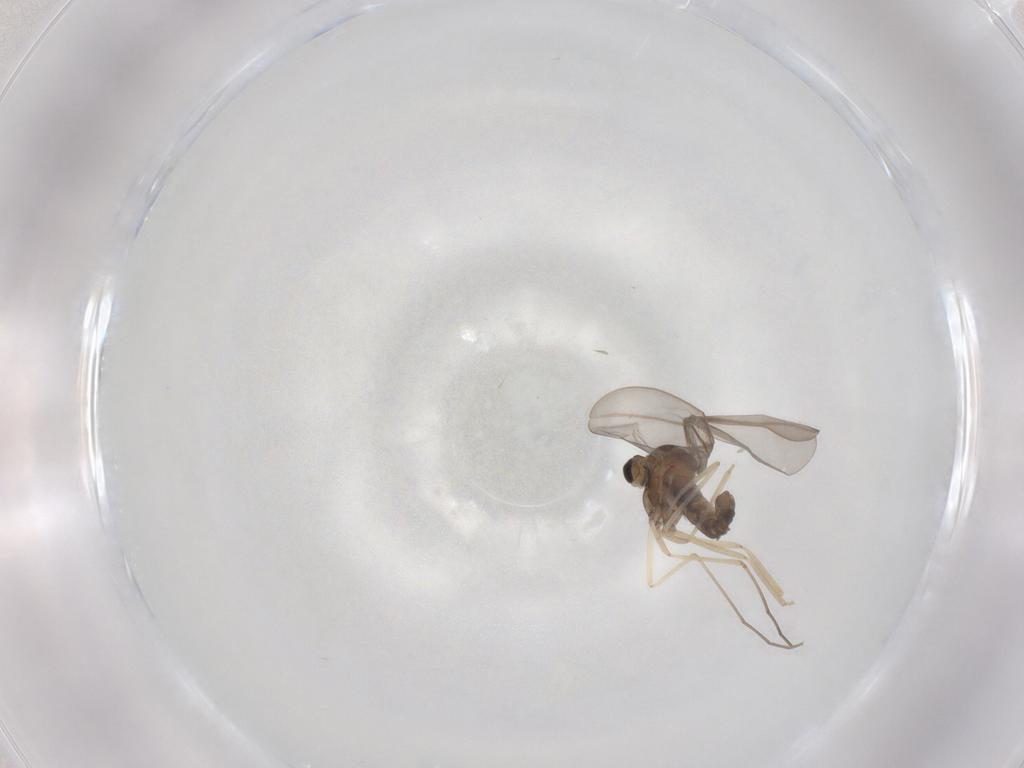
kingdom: Animalia
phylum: Arthropoda
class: Insecta
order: Diptera
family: Cecidomyiidae
